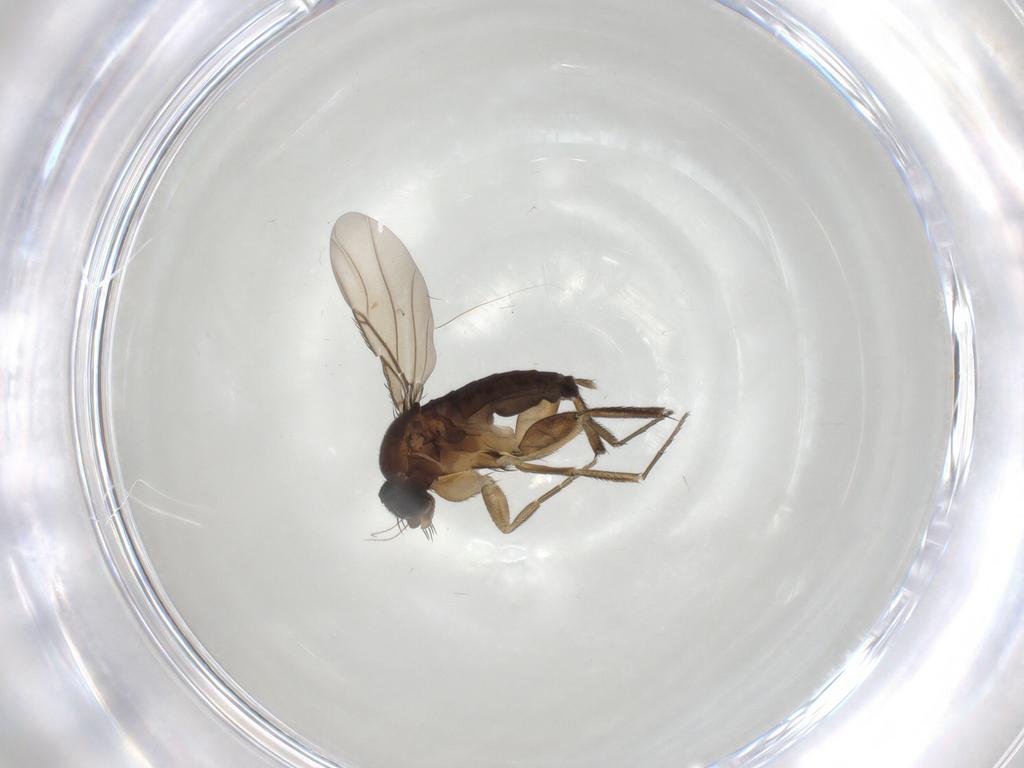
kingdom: Animalia
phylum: Arthropoda
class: Insecta
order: Diptera
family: Phoridae
